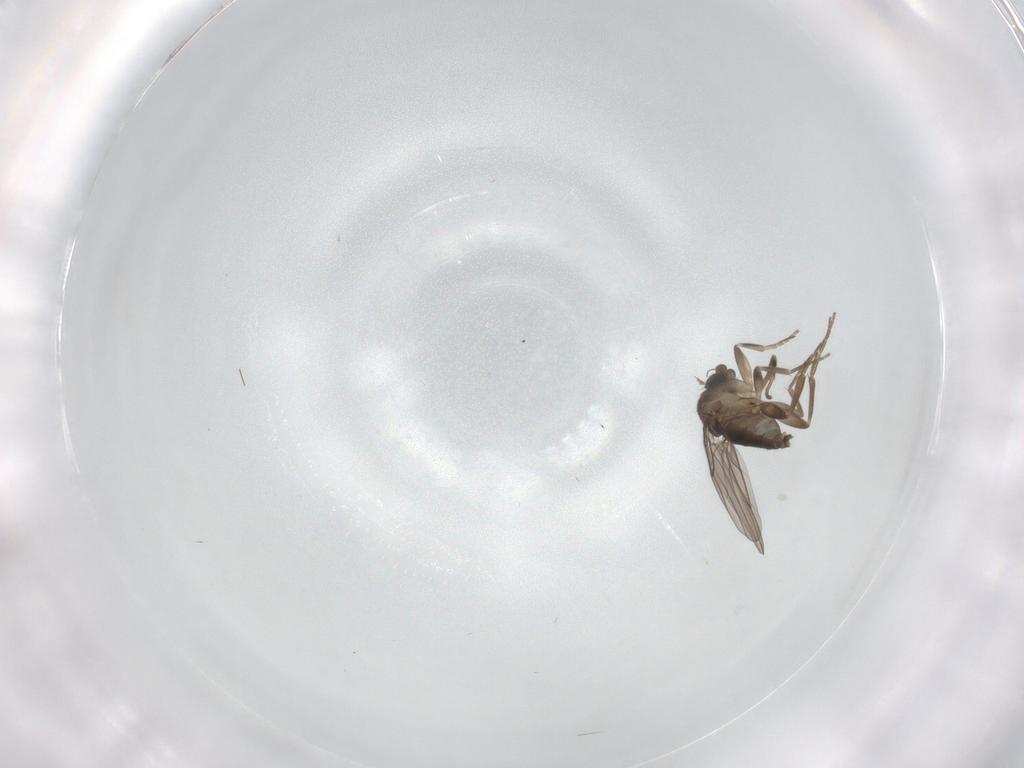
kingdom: Animalia
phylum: Arthropoda
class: Insecta
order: Diptera
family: Phoridae
